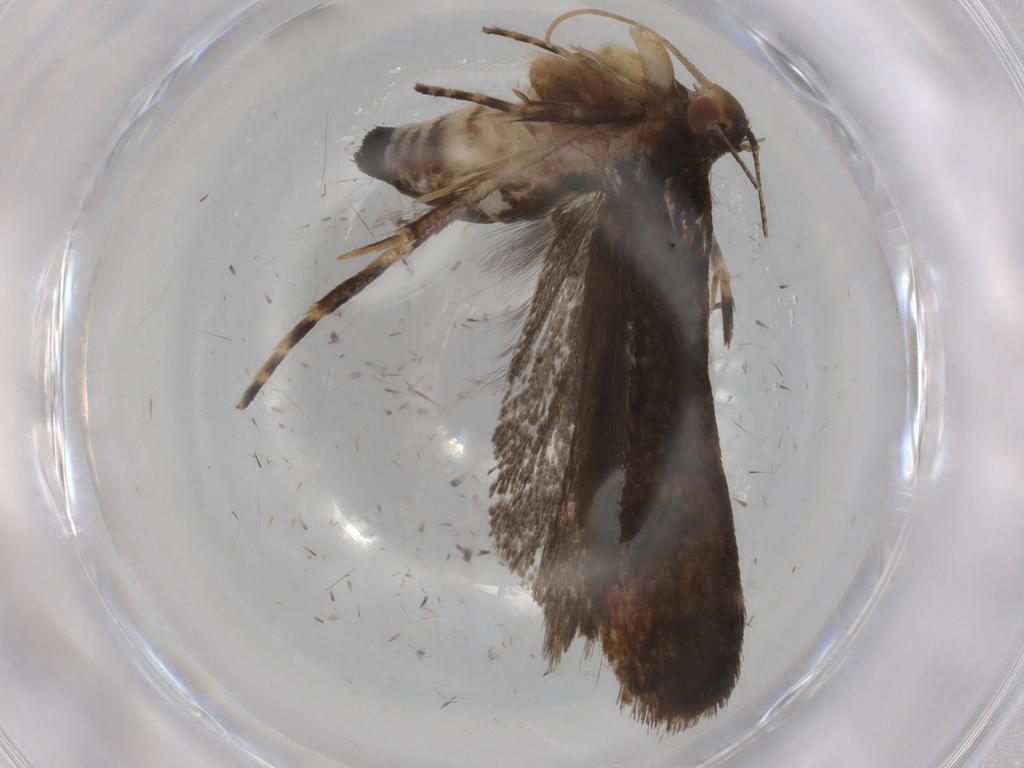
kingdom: Animalia
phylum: Arthropoda
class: Insecta
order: Lepidoptera
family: Gelechiidae
